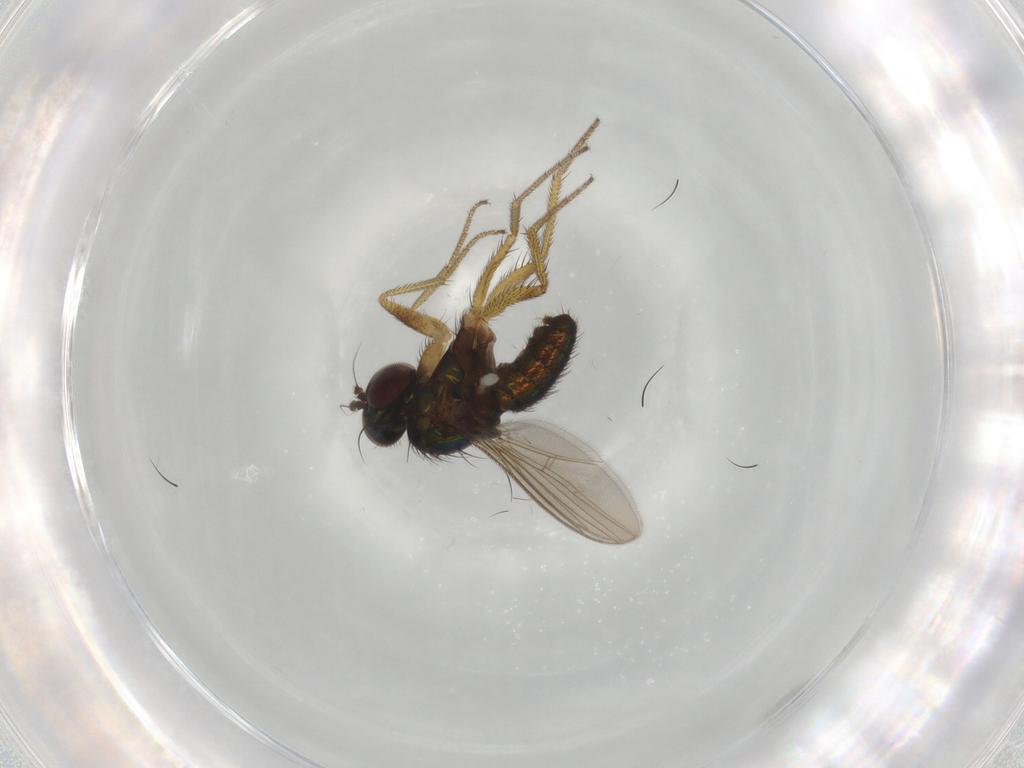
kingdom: Animalia
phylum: Arthropoda
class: Insecta
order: Diptera
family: Dolichopodidae
